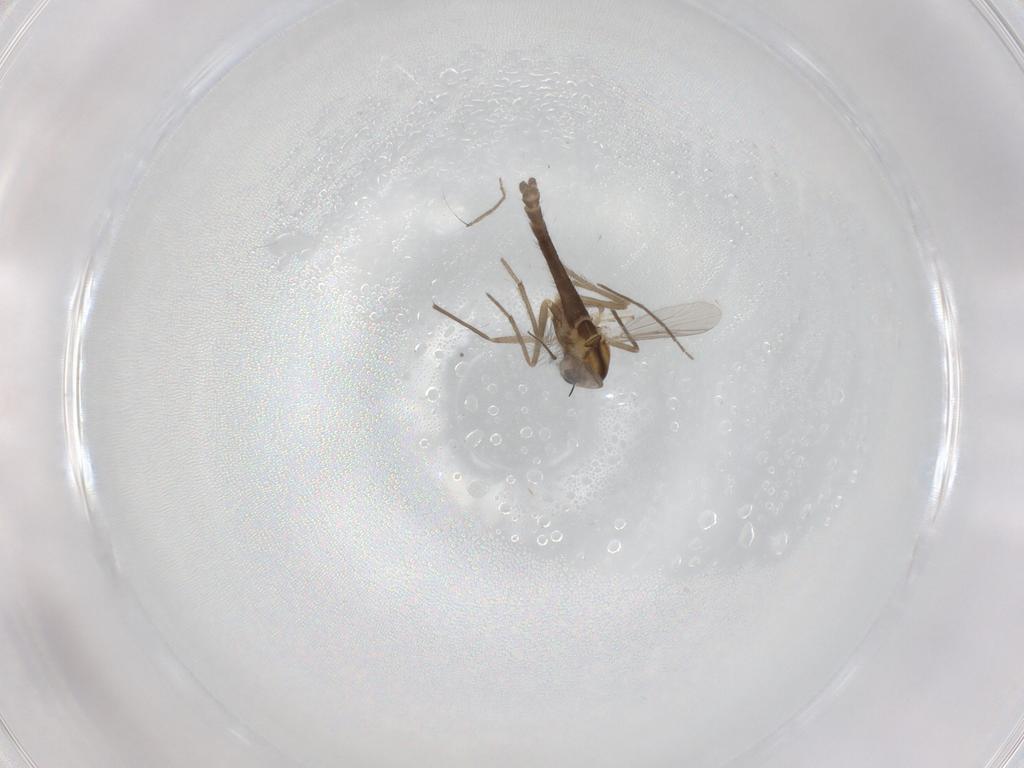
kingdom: Animalia
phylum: Arthropoda
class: Insecta
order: Diptera
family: Chironomidae
